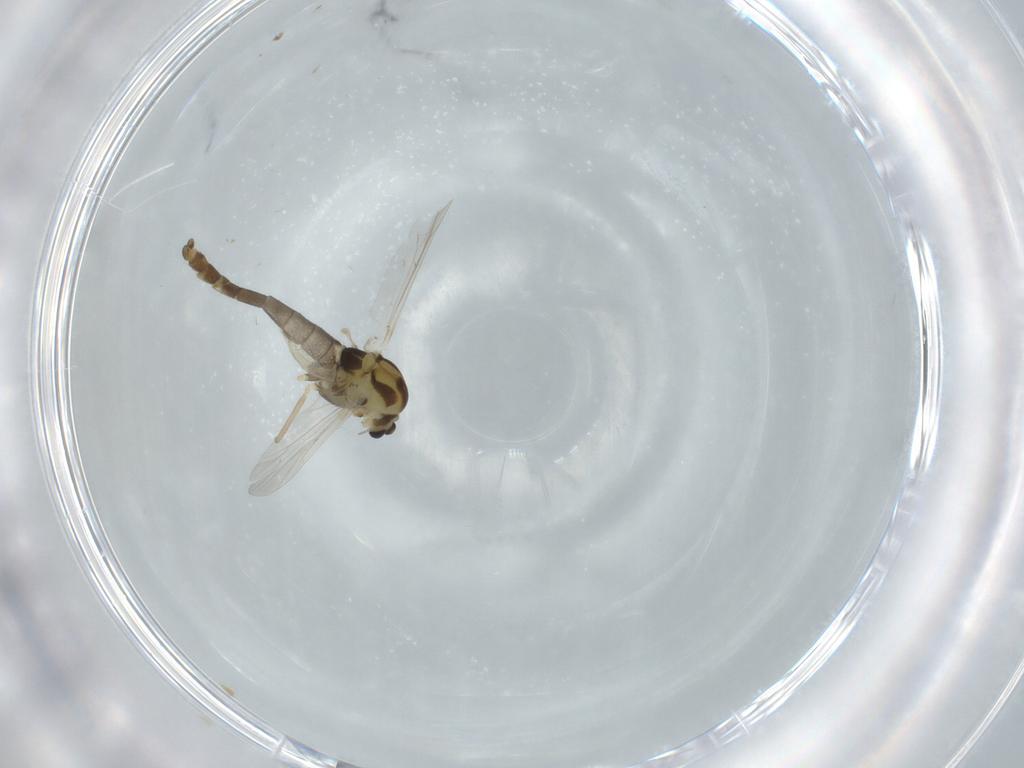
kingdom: Animalia
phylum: Arthropoda
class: Insecta
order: Diptera
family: Chironomidae
